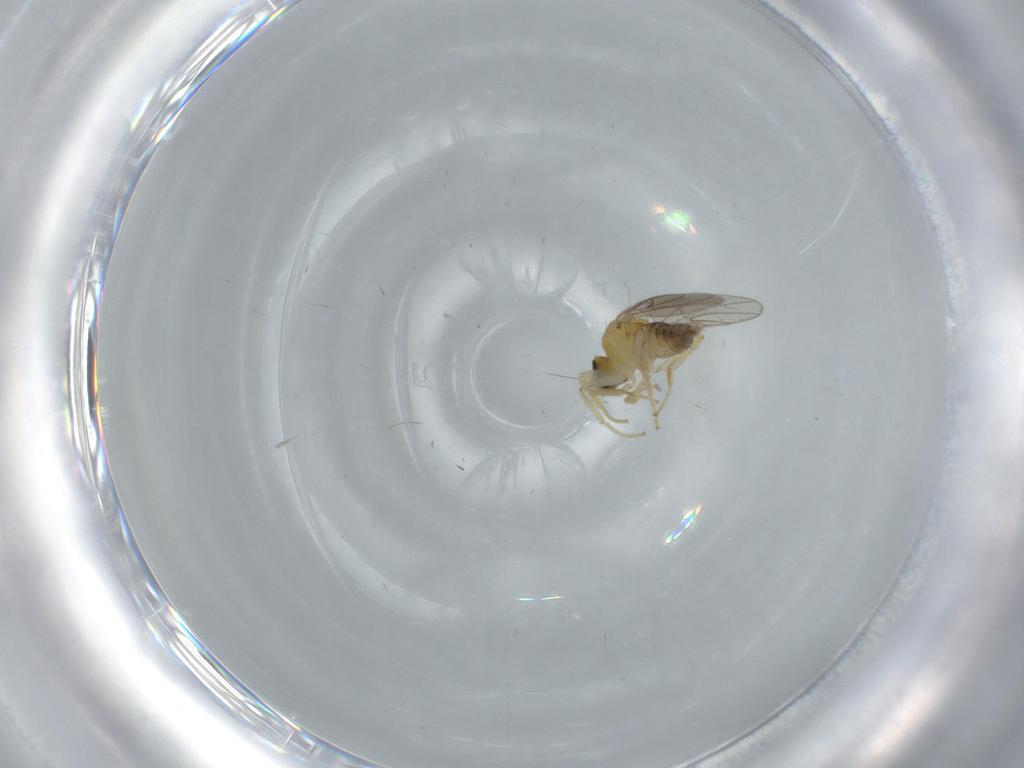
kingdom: Animalia
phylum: Arthropoda
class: Insecta
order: Diptera
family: Hybotidae
